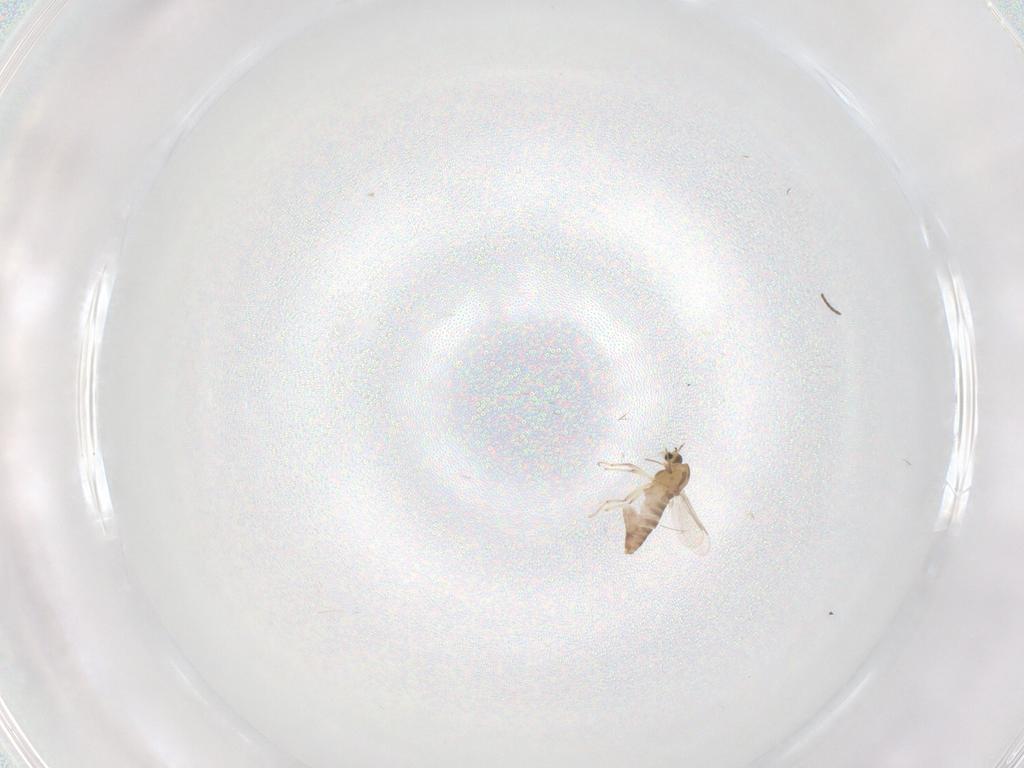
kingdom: Animalia
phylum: Arthropoda
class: Insecta
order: Diptera
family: Chironomidae
